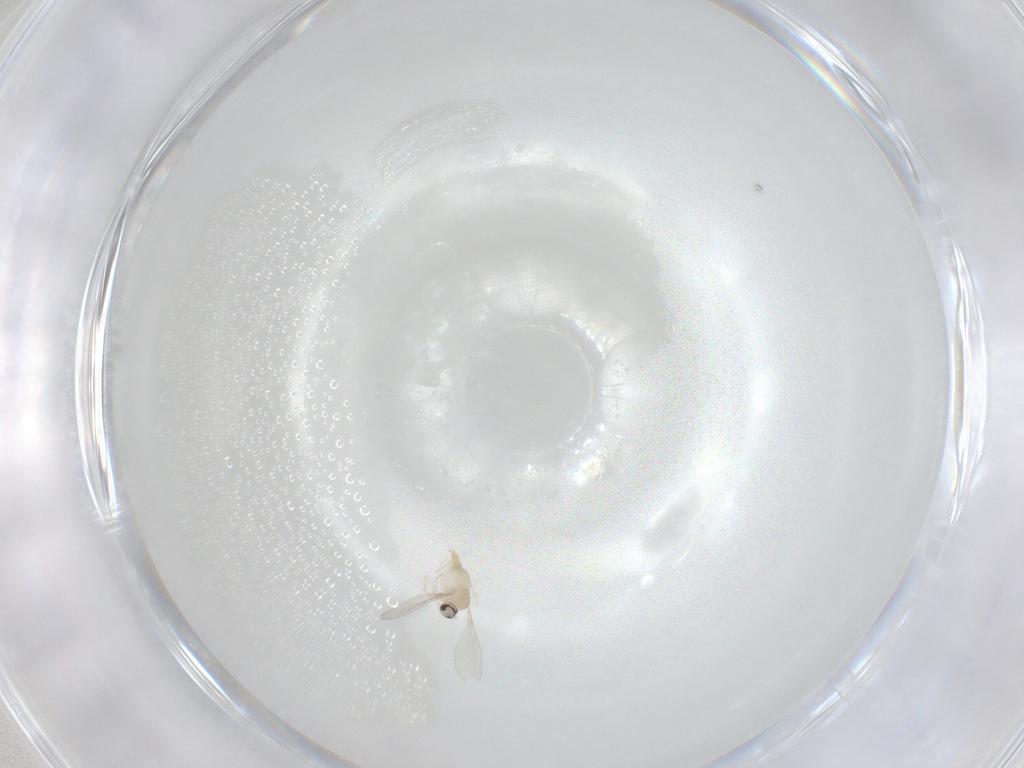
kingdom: Animalia
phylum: Arthropoda
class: Insecta
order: Diptera
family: Cecidomyiidae
